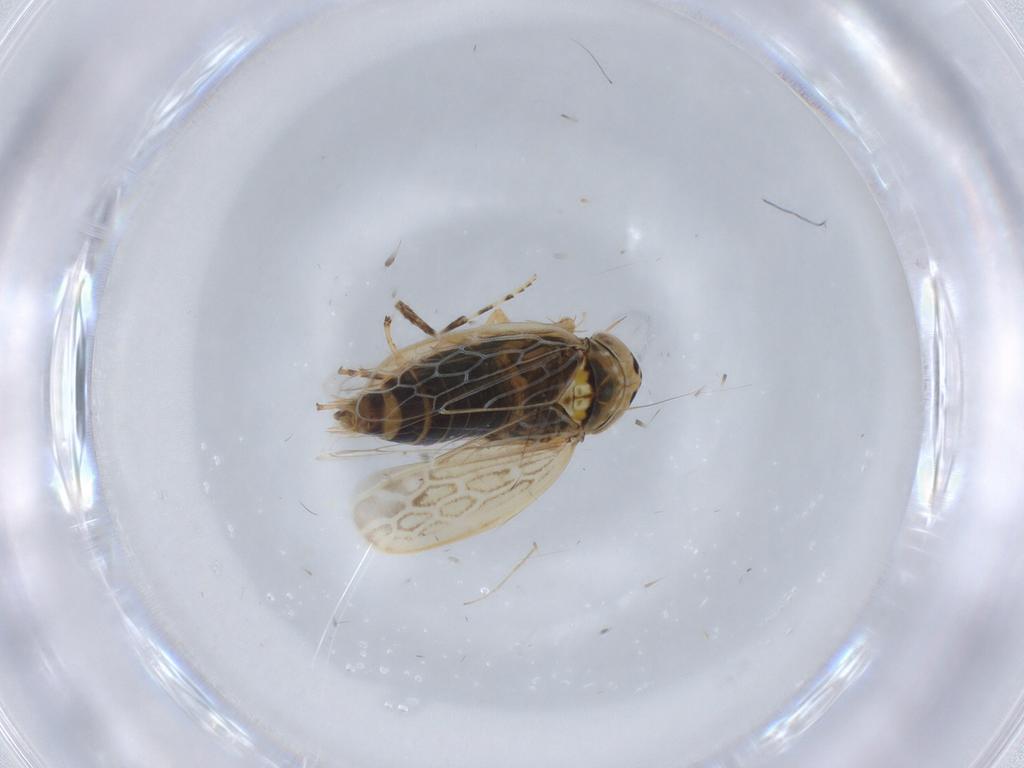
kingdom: Animalia
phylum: Arthropoda
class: Insecta
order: Hemiptera
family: Cicadellidae
